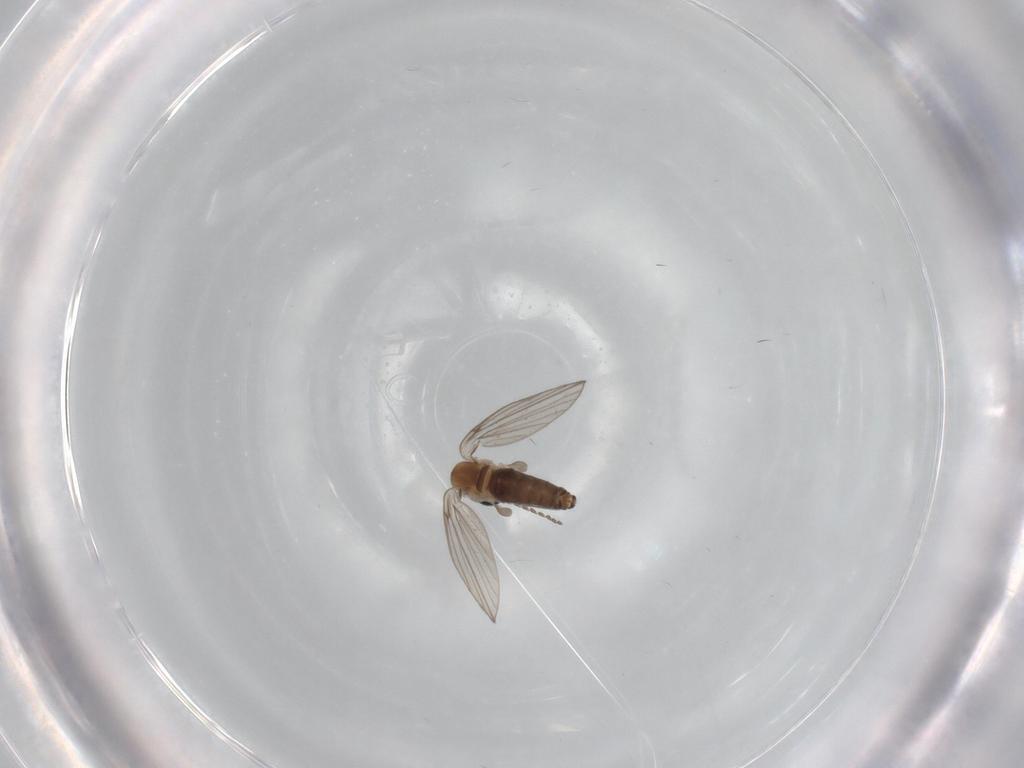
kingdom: Animalia
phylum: Arthropoda
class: Insecta
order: Diptera
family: Psychodidae
